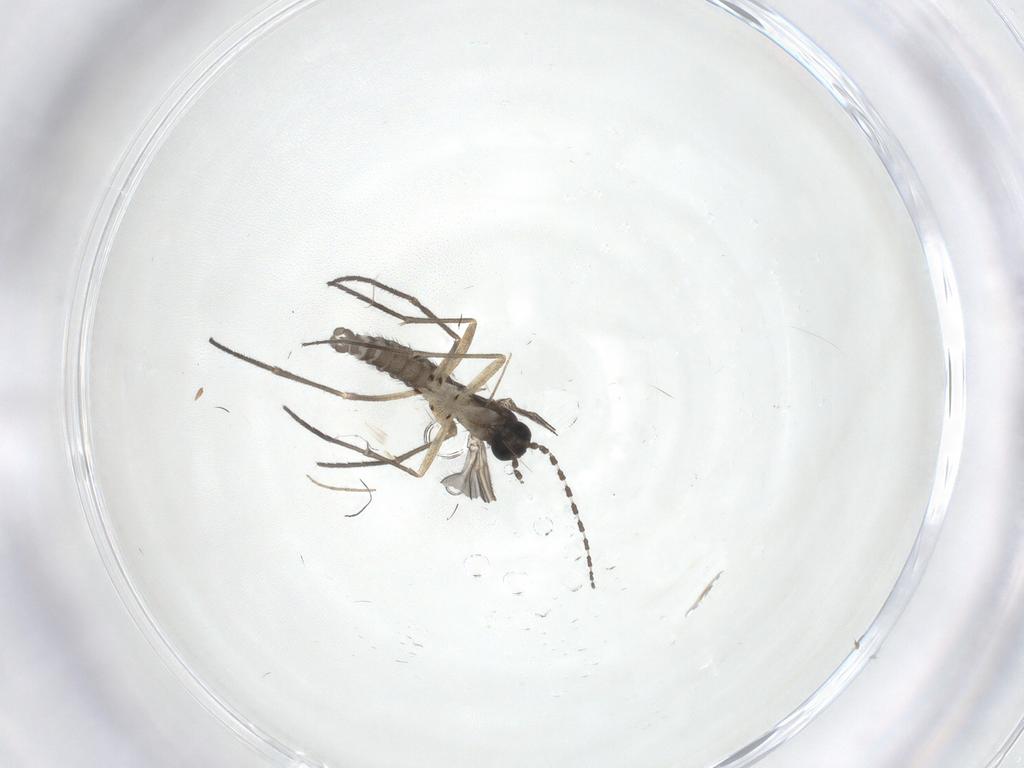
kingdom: Animalia
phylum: Arthropoda
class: Insecta
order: Diptera
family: Sciaridae
